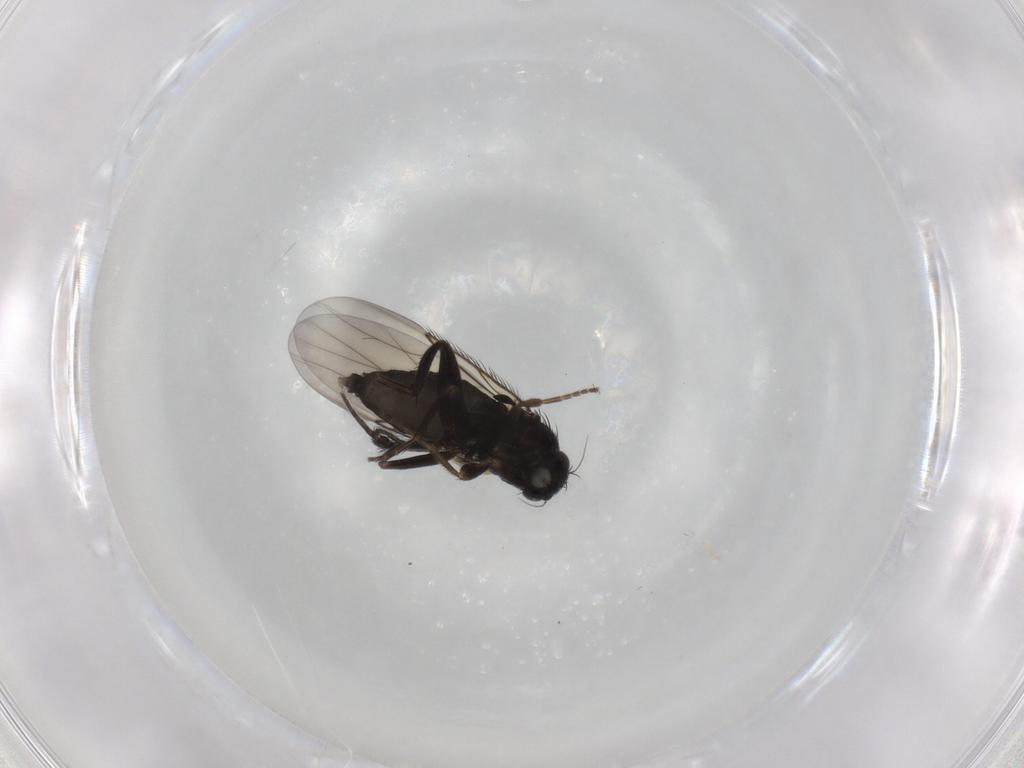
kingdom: Animalia
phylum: Arthropoda
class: Insecta
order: Diptera
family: Phoridae
